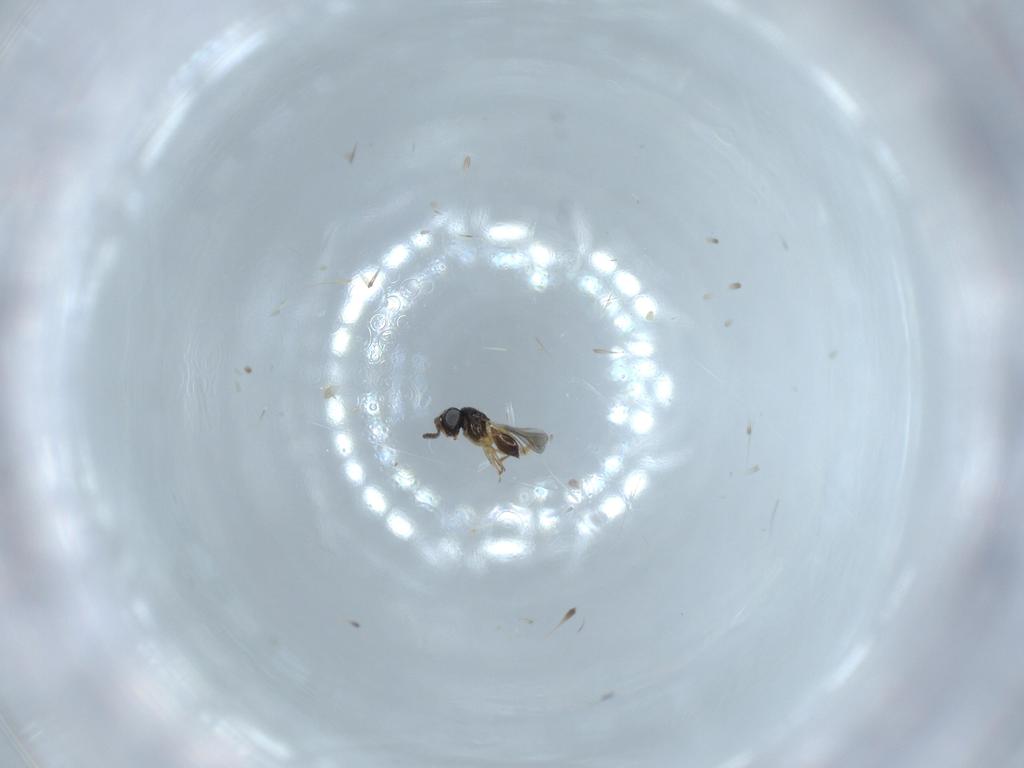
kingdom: Animalia
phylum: Arthropoda
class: Insecta
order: Hymenoptera
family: Scelionidae
